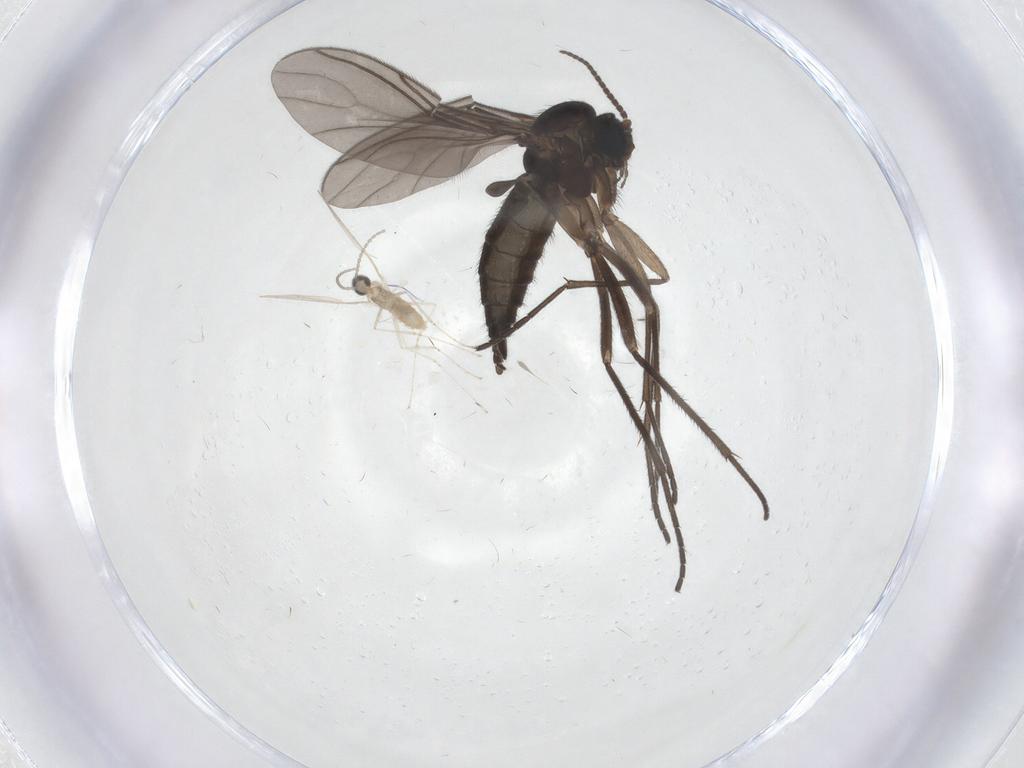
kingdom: Animalia
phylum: Arthropoda
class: Insecta
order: Diptera
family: Sciaridae
